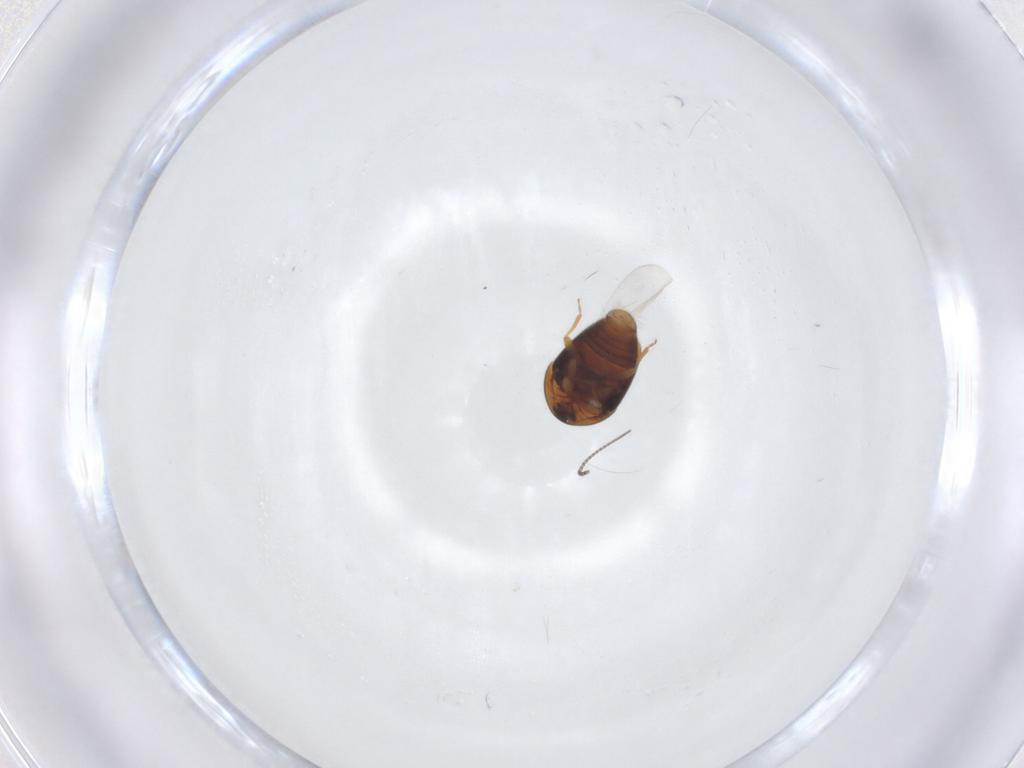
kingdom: Animalia
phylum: Arthropoda
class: Insecta
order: Coleoptera
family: Corylophidae
